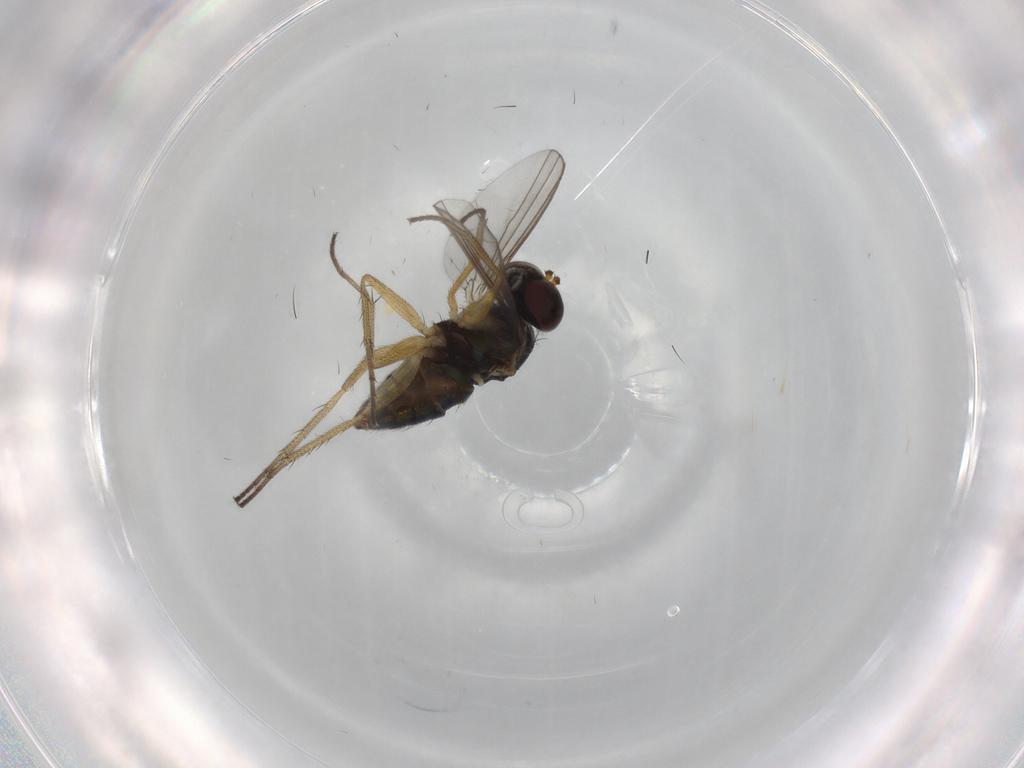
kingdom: Animalia
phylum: Arthropoda
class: Insecta
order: Diptera
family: Dolichopodidae
